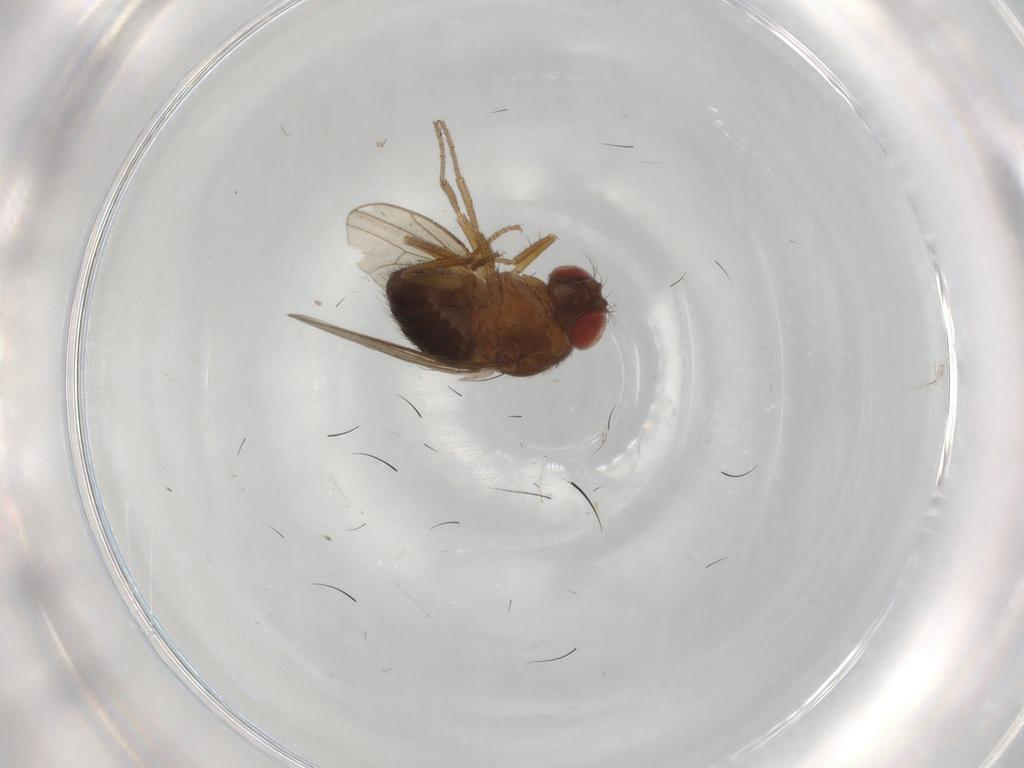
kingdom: Animalia
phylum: Arthropoda
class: Insecta
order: Diptera
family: Drosophilidae
